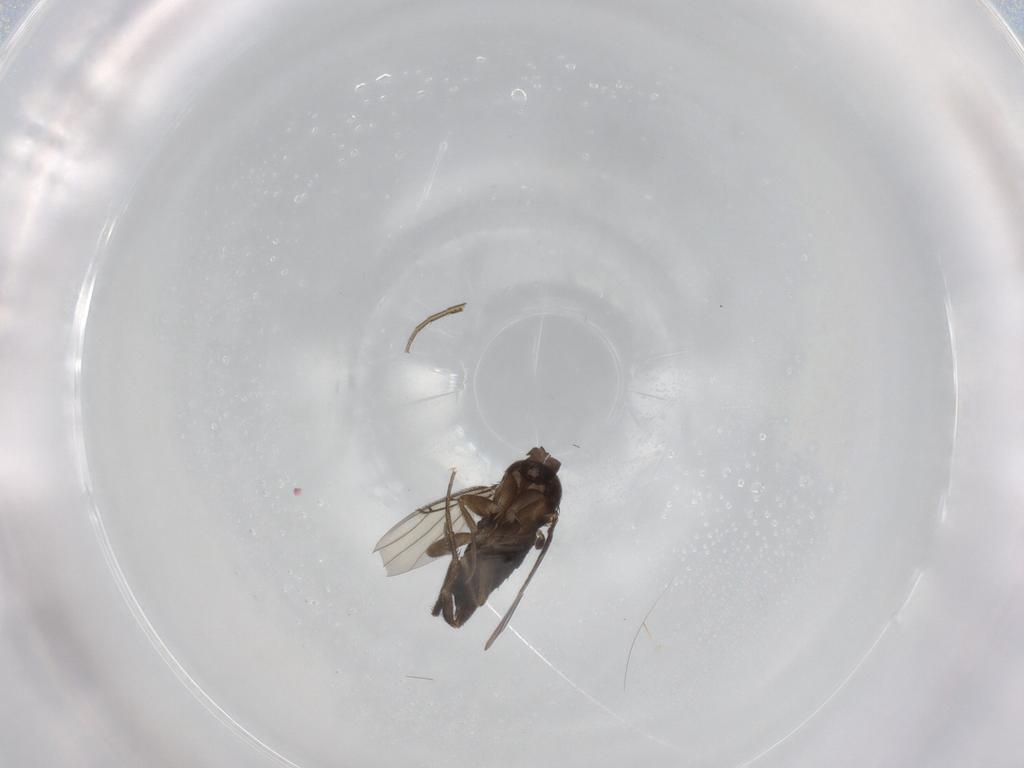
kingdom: Animalia
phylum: Arthropoda
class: Insecta
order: Diptera
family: Phoridae
